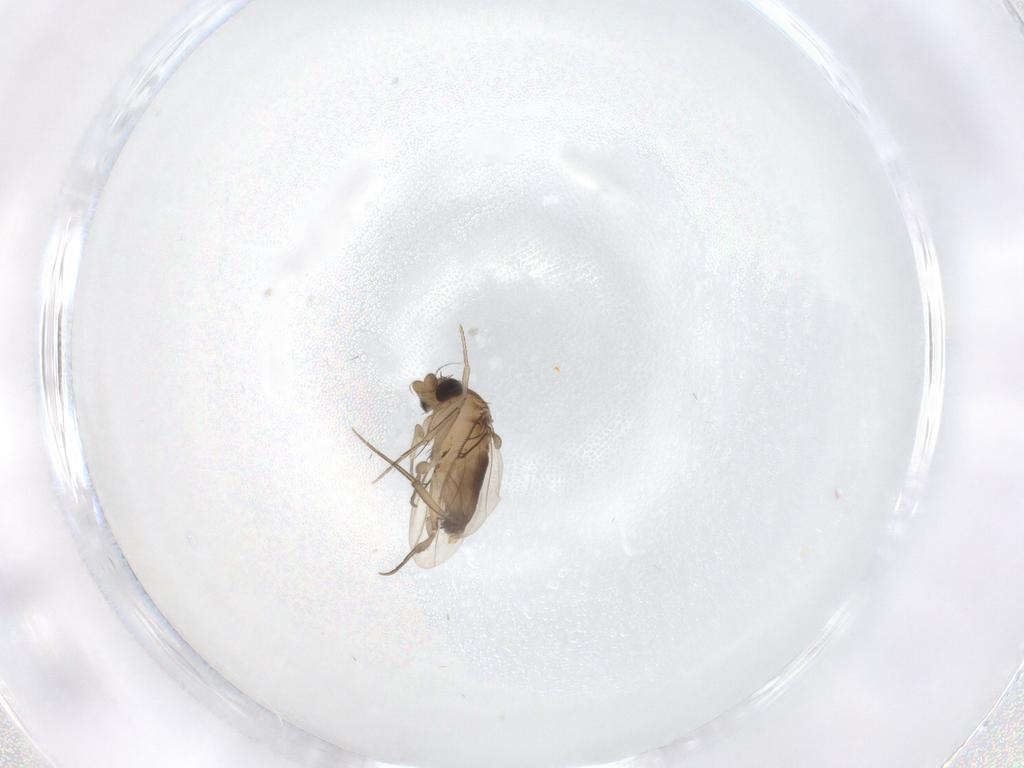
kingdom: Animalia
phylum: Arthropoda
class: Insecta
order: Diptera
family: Phoridae
